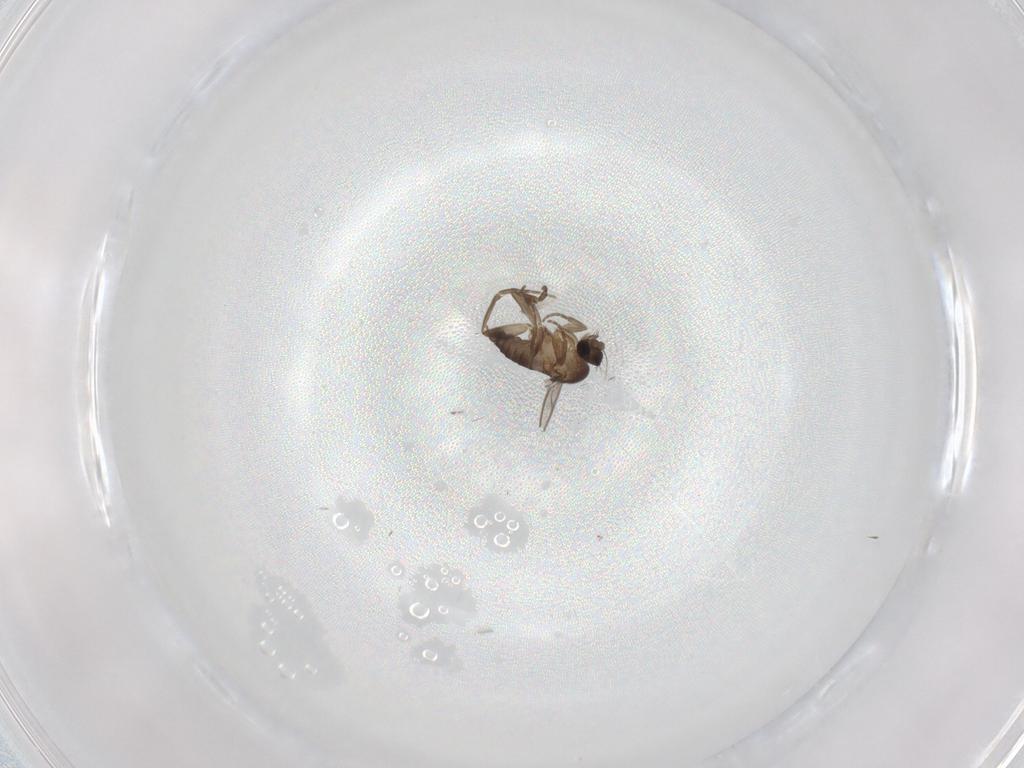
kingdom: Animalia
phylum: Arthropoda
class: Insecta
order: Diptera
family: Phoridae
